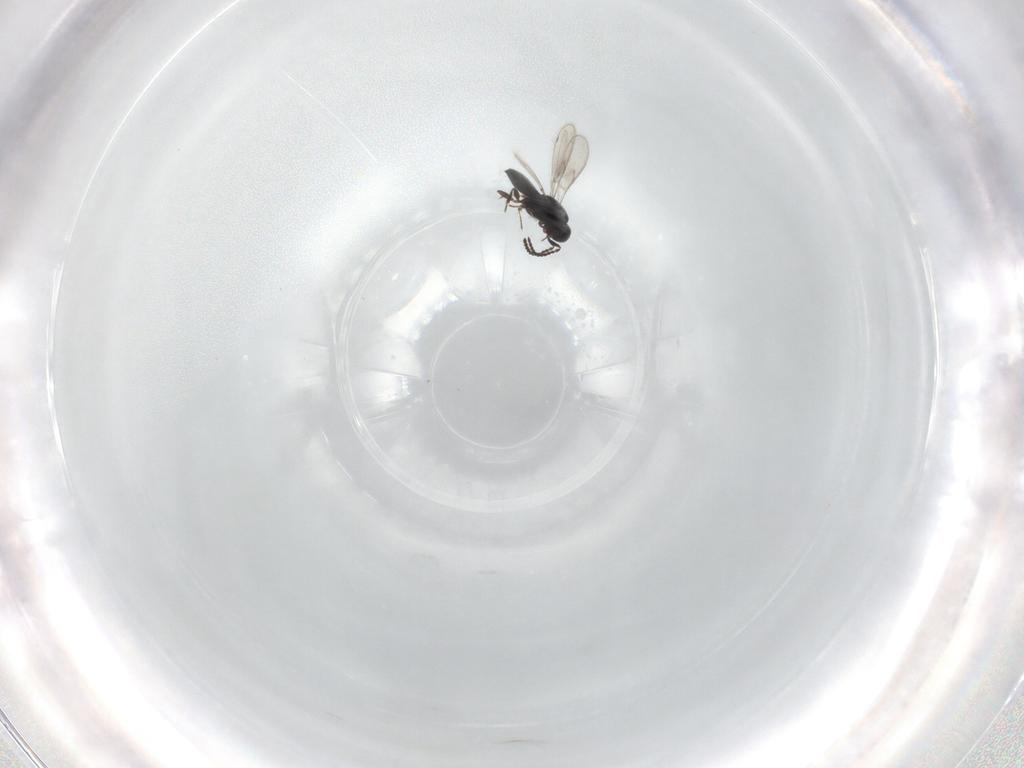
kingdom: Animalia
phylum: Arthropoda
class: Insecta
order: Hymenoptera
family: Scelionidae
